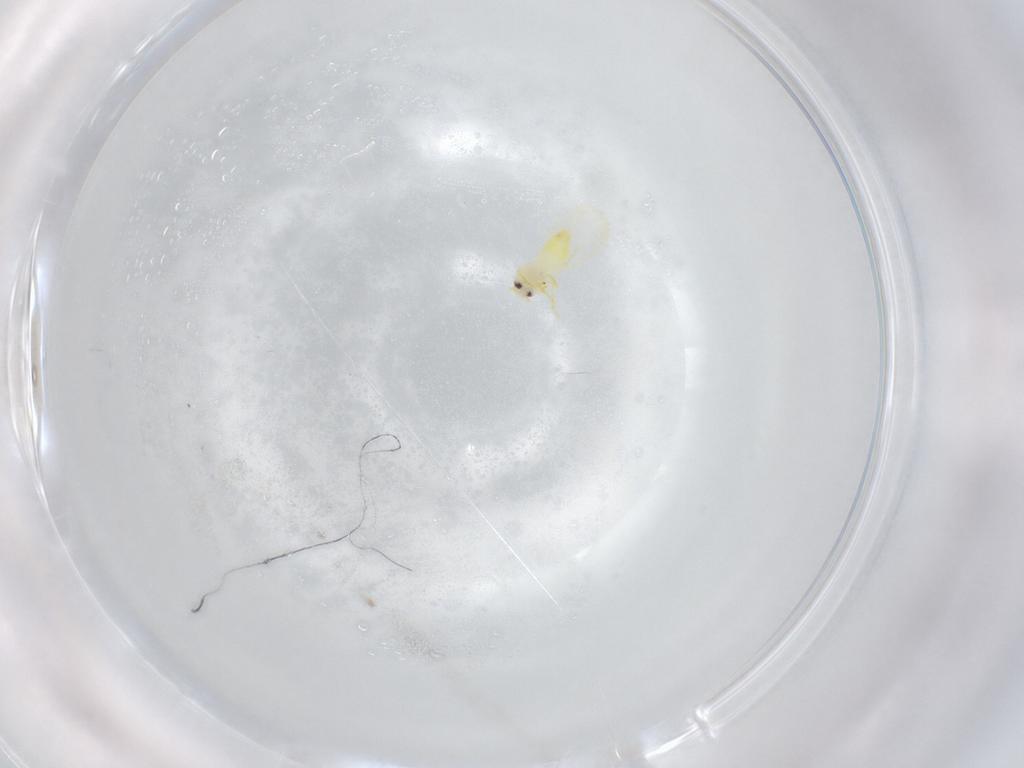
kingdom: Animalia
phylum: Arthropoda
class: Insecta
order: Hemiptera
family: Aleyrodidae
